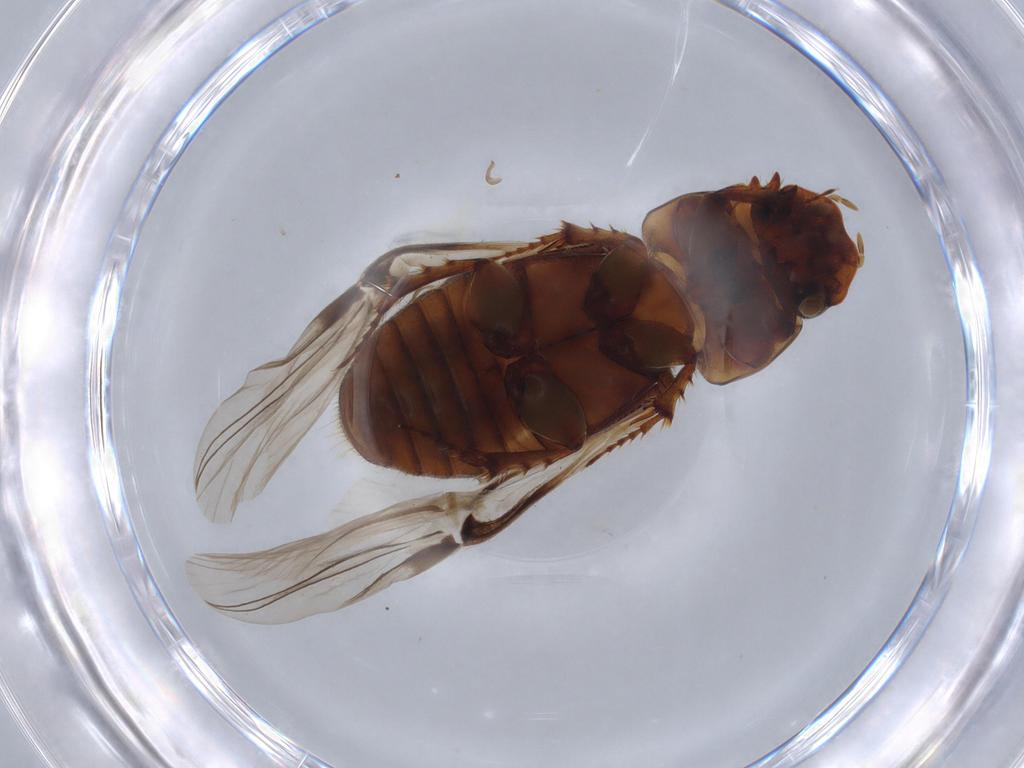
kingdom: Animalia
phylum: Arthropoda
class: Insecta
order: Coleoptera
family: Latridiidae
